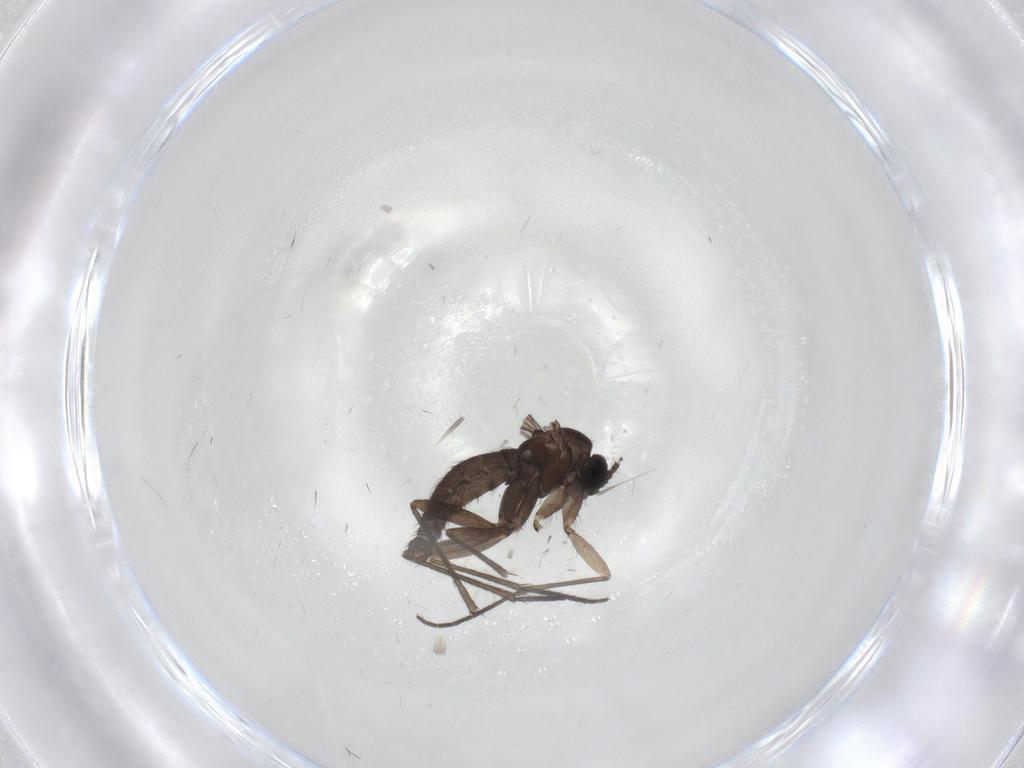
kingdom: Animalia
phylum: Arthropoda
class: Insecta
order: Diptera
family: Sciaridae
